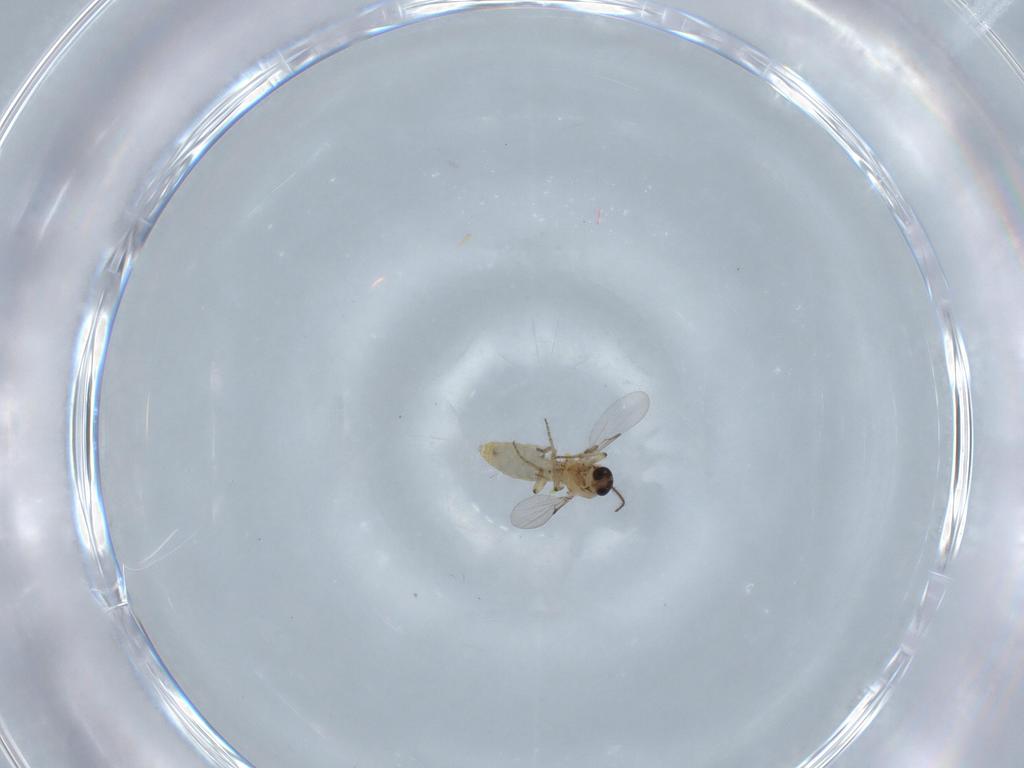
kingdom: Animalia
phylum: Arthropoda
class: Insecta
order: Diptera
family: Ceratopogonidae
